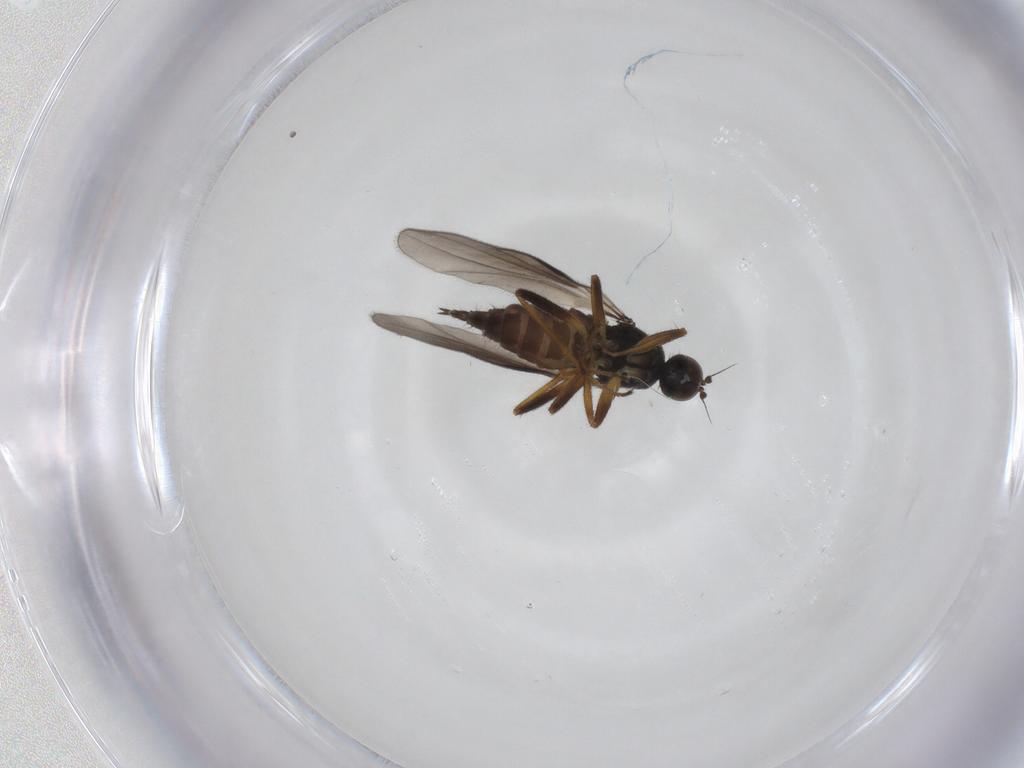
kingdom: Animalia
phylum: Arthropoda
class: Insecta
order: Diptera
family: Hybotidae
